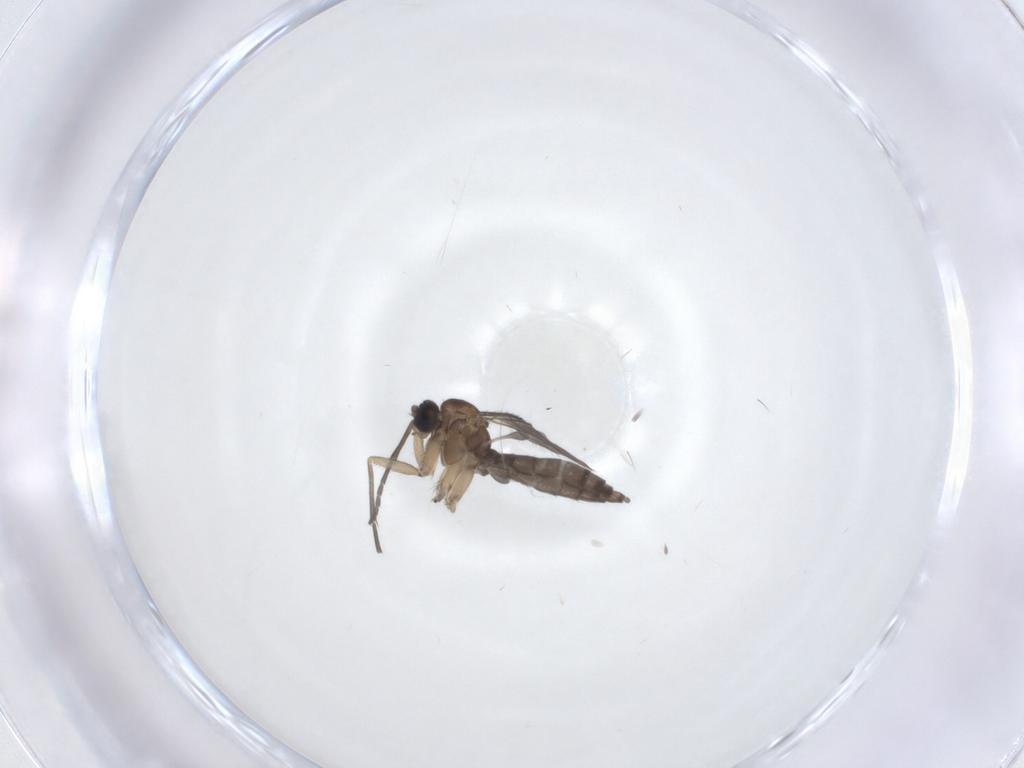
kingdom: Animalia
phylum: Arthropoda
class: Insecta
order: Diptera
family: Sciaridae
